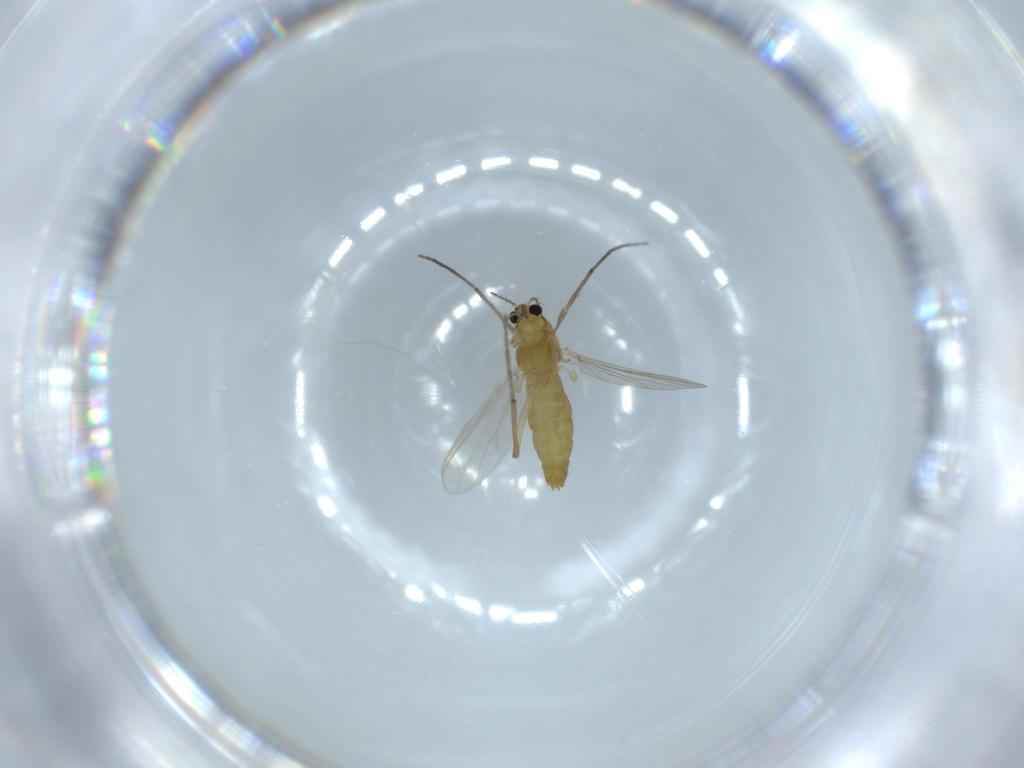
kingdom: Animalia
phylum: Arthropoda
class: Insecta
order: Diptera
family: Chironomidae
